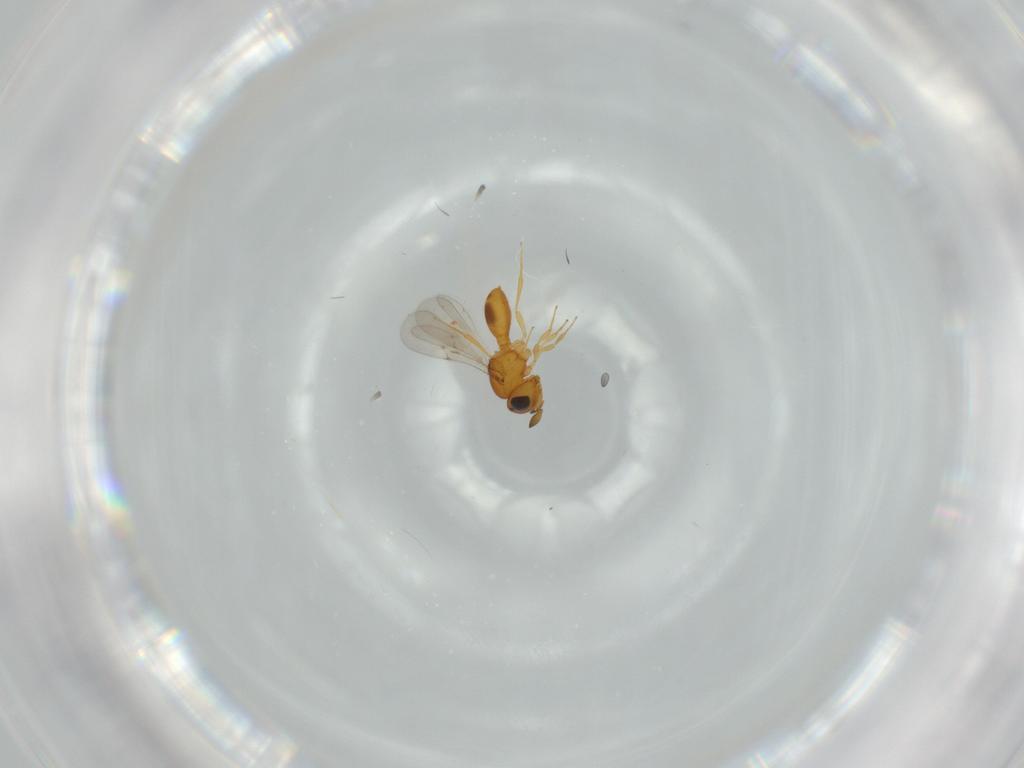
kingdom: Animalia
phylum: Arthropoda
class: Insecta
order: Hymenoptera
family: Scelionidae
